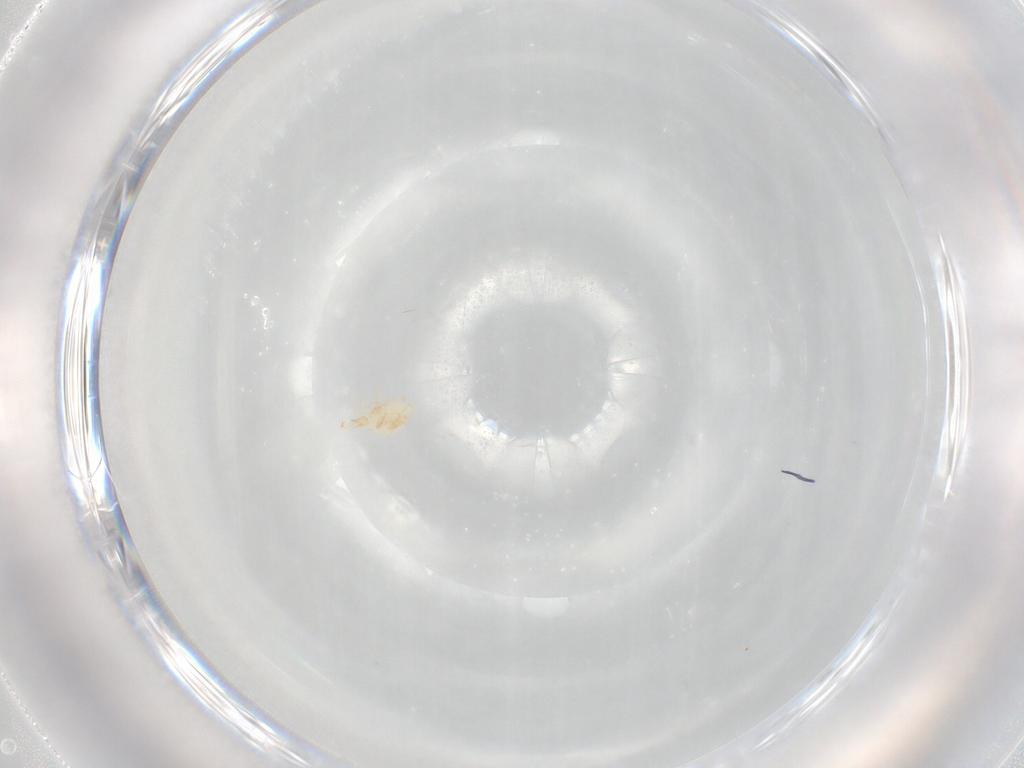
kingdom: Animalia
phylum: Arthropoda
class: Arachnida
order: Trombidiformes
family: Cunaxidae
